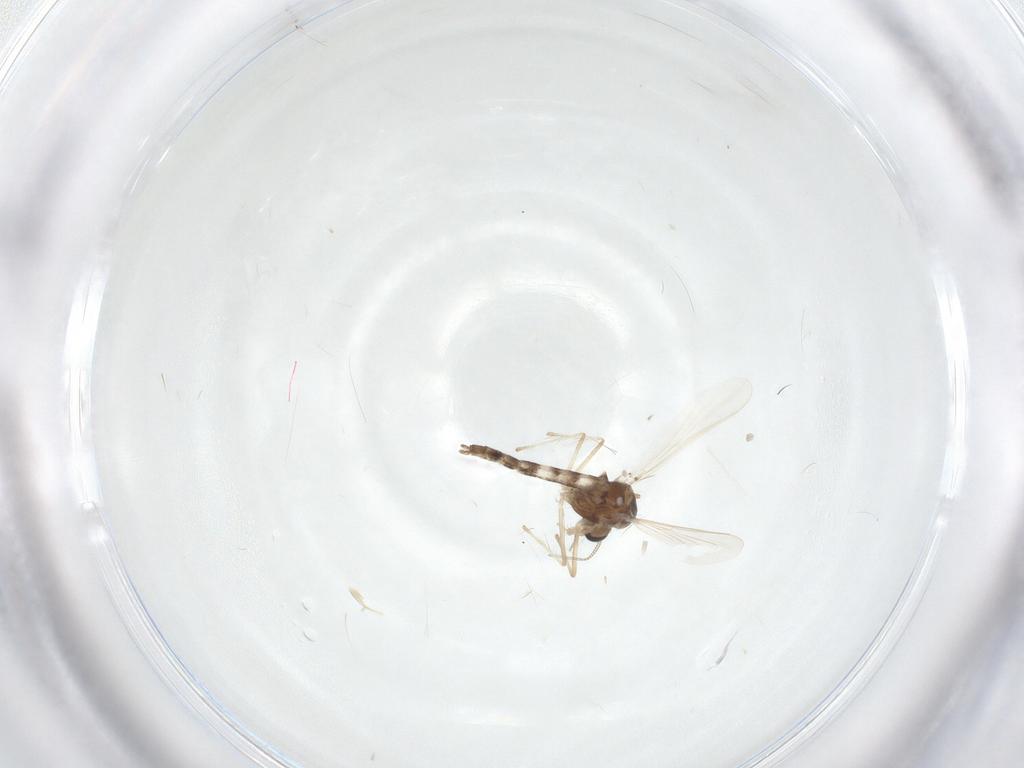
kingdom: Animalia
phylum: Arthropoda
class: Insecta
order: Diptera
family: Chironomidae
